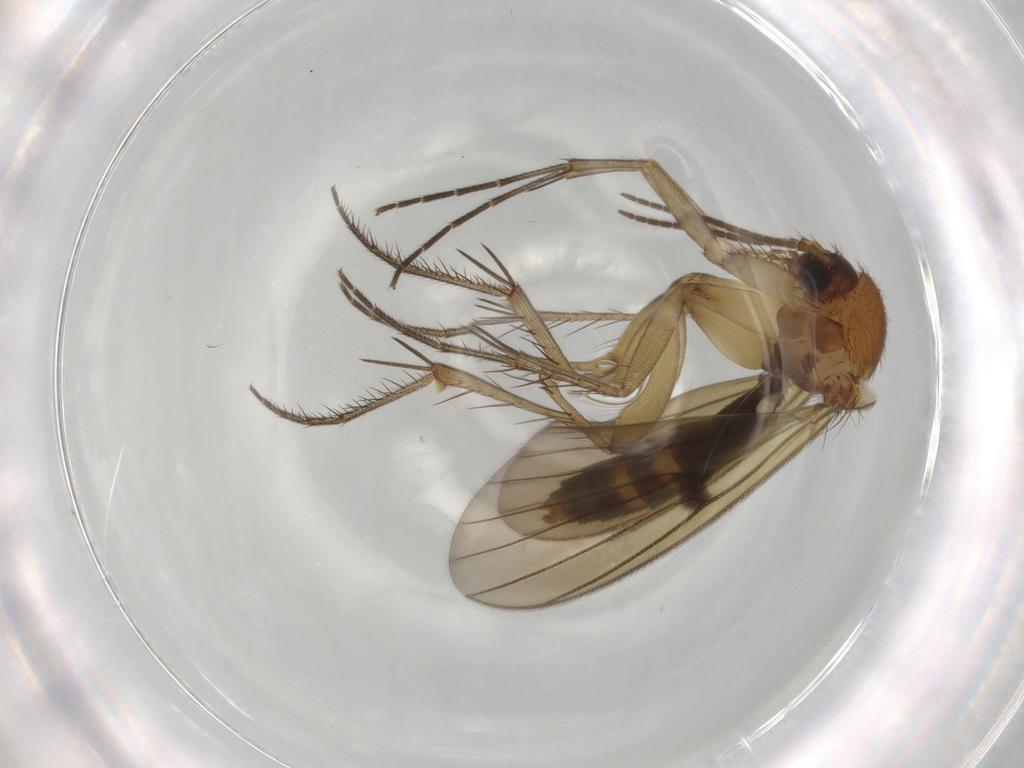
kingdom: Animalia
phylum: Arthropoda
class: Insecta
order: Diptera
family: Mycetophilidae
